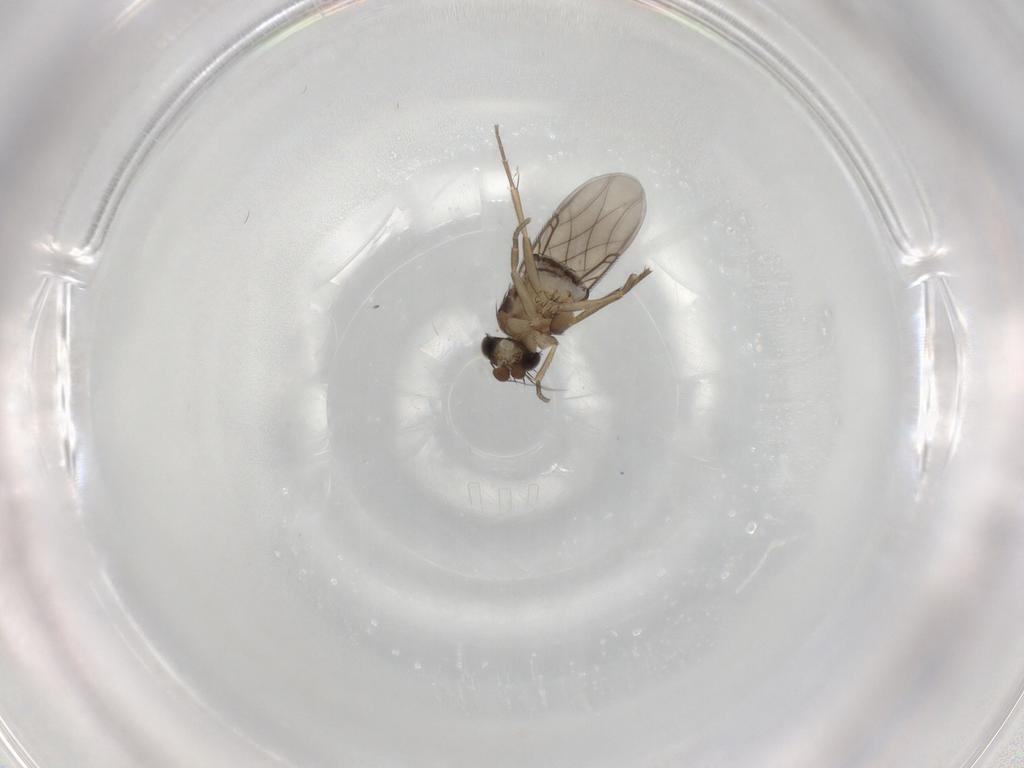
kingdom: Animalia
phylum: Arthropoda
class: Insecta
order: Diptera
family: Phoridae
